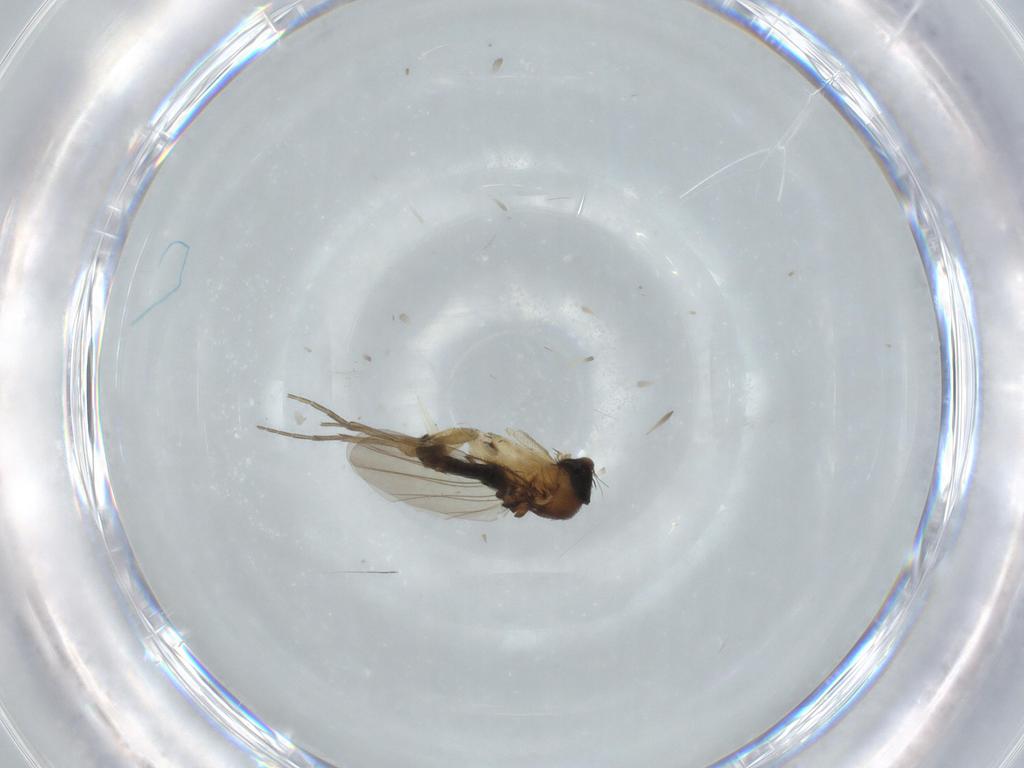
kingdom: Animalia
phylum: Arthropoda
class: Insecta
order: Diptera
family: Phoridae
